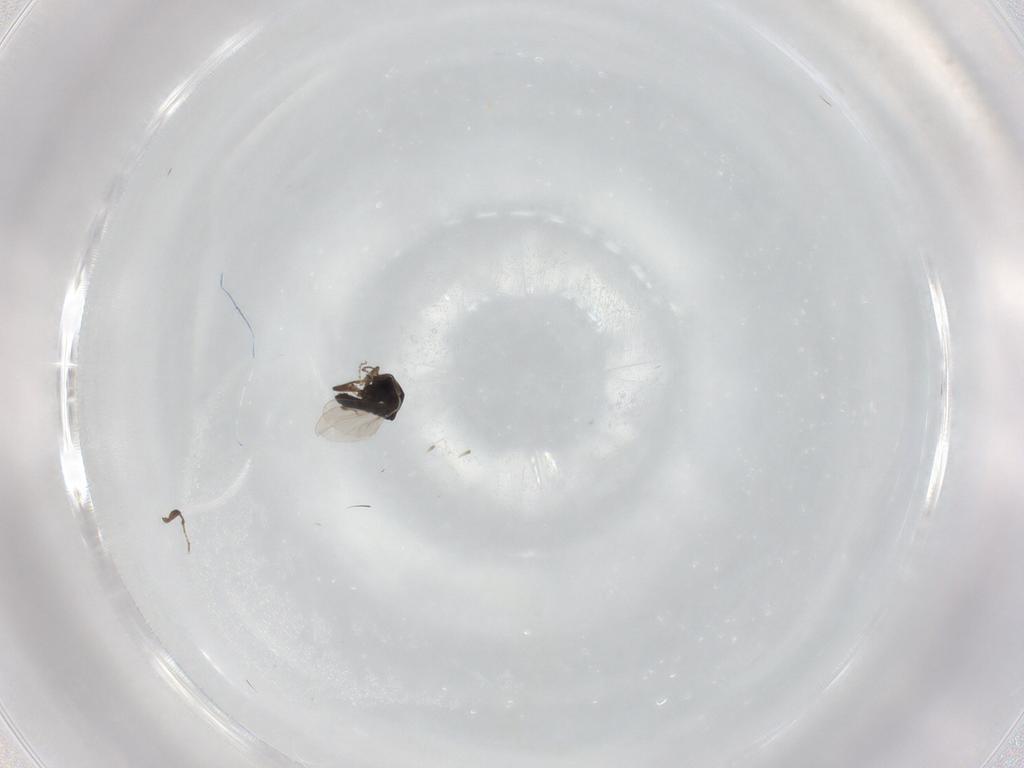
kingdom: Animalia
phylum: Arthropoda
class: Insecta
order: Diptera
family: Ceratopogonidae
